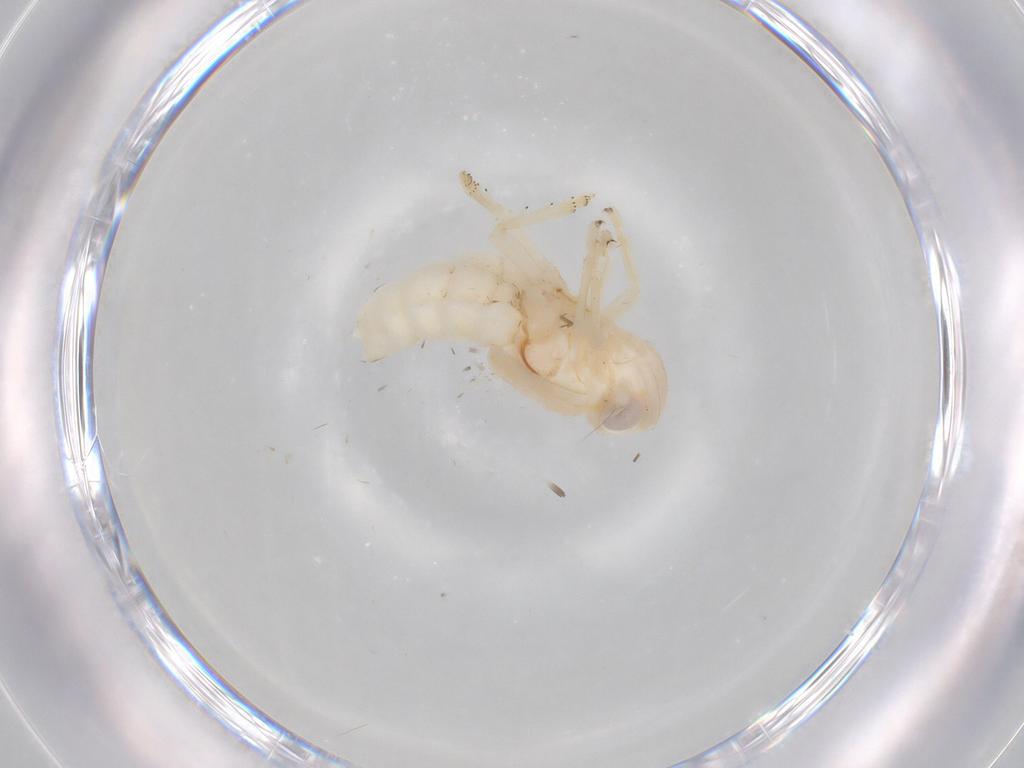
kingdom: Animalia
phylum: Arthropoda
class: Insecta
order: Hemiptera
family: Nogodinidae
